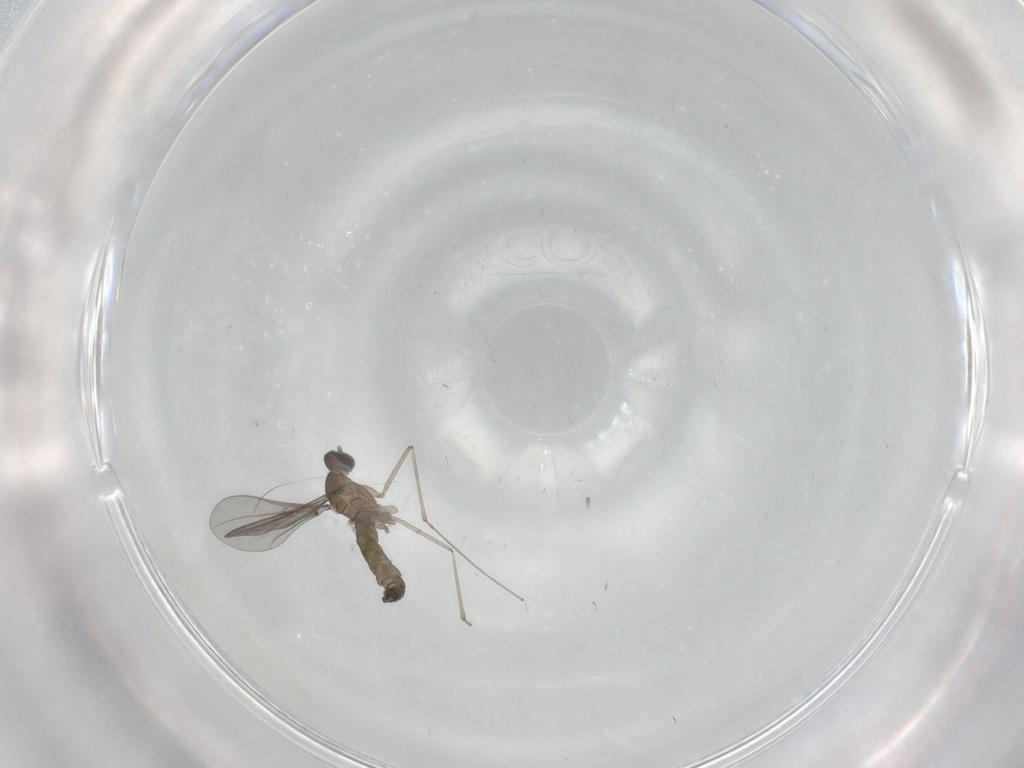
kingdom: Animalia
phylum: Arthropoda
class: Insecta
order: Diptera
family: Cecidomyiidae
